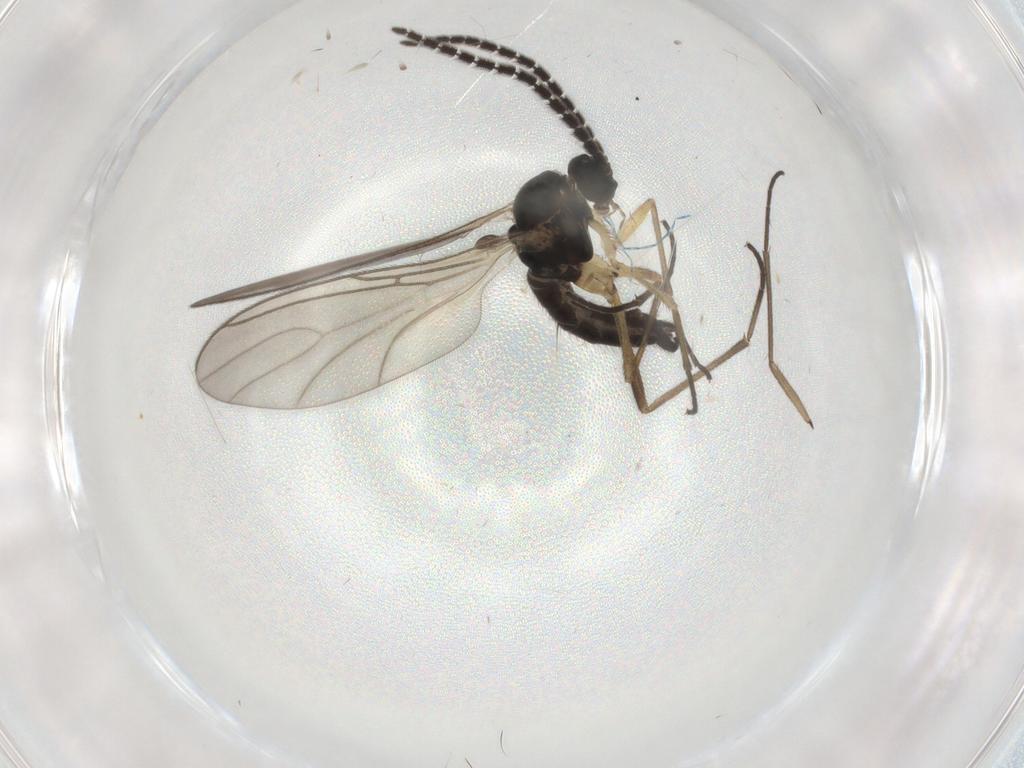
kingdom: Animalia
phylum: Arthropoda
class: Insecta
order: Diptera
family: Sciaridae
